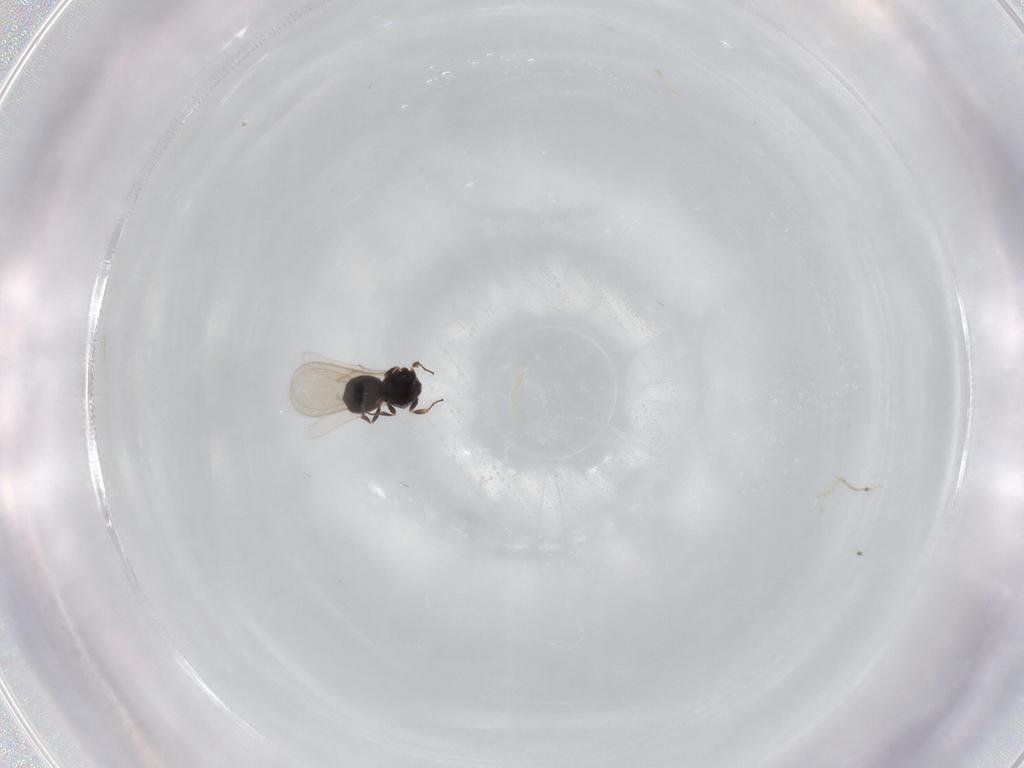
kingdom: Animalia
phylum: Arthropoda
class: Insecta
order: Hymenoptera
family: Scelionidae
